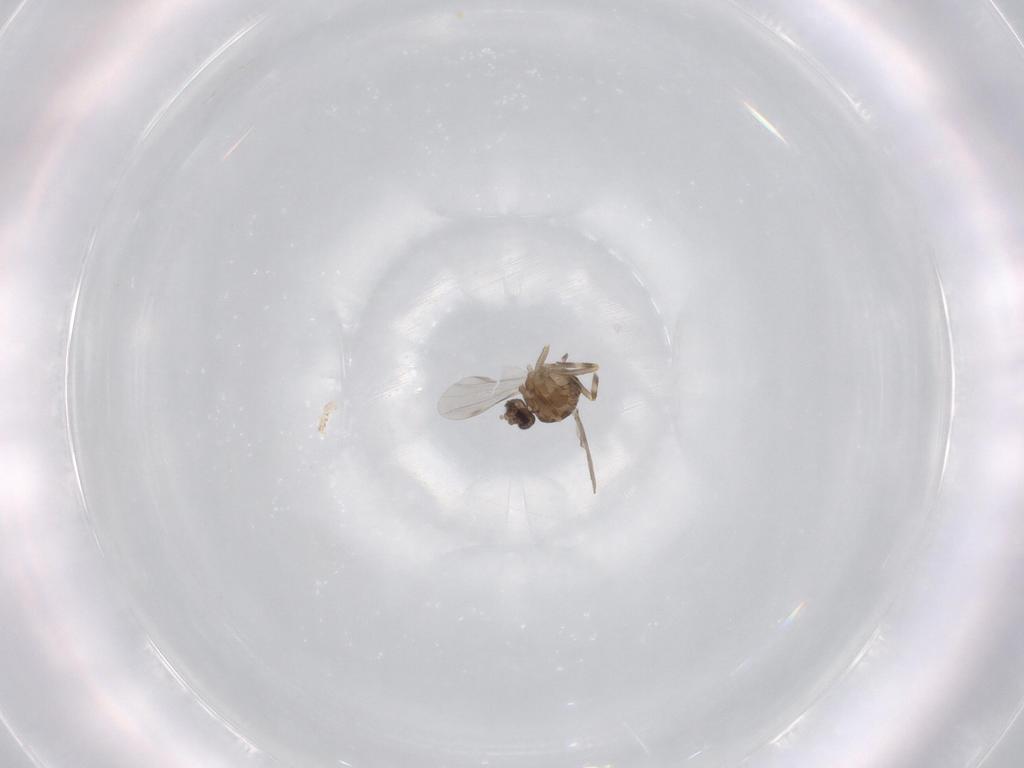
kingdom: Animalia
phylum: Arthropoda
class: Insecta
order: Diptera
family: Ceratopogonidae
